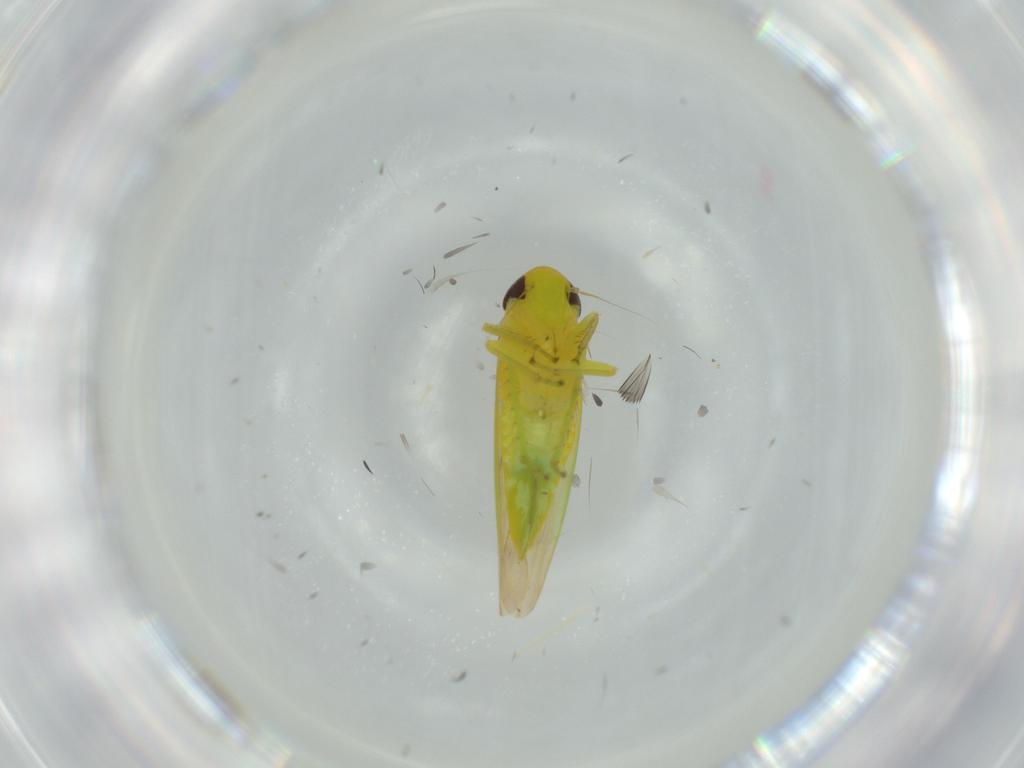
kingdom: Animalia
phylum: Arthropoda
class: Insecta
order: Hemiptera
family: Cicadellidae
